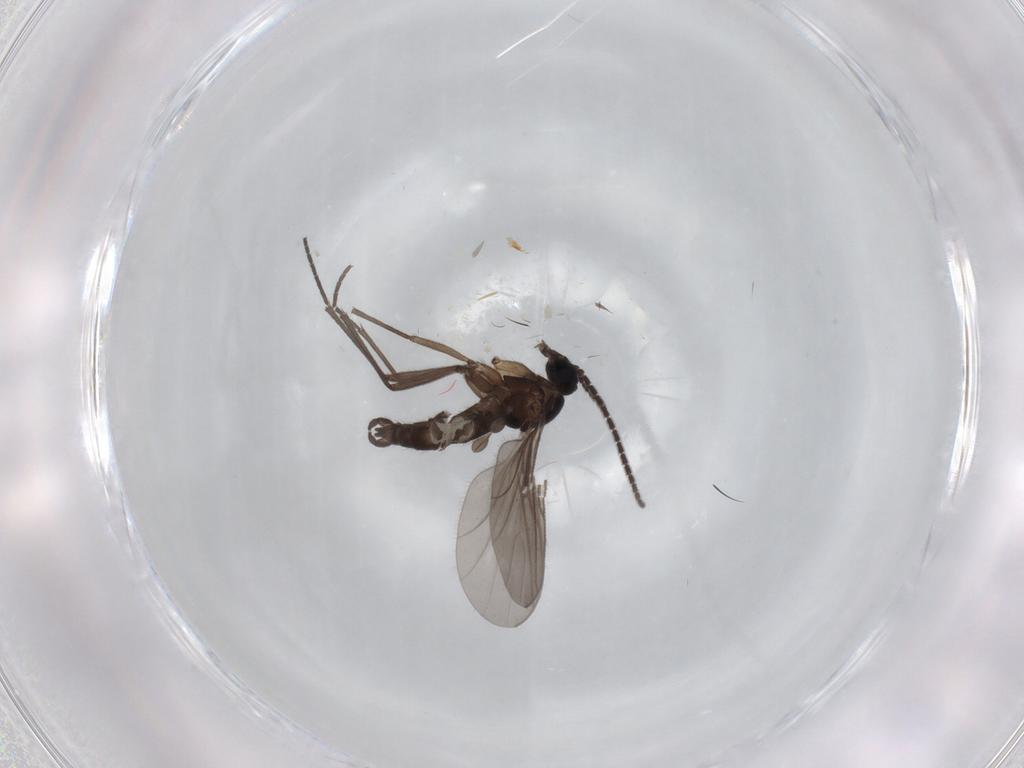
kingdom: Animalia
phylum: Arthropoda
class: Insecta
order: Diptera
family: Sciaridae
